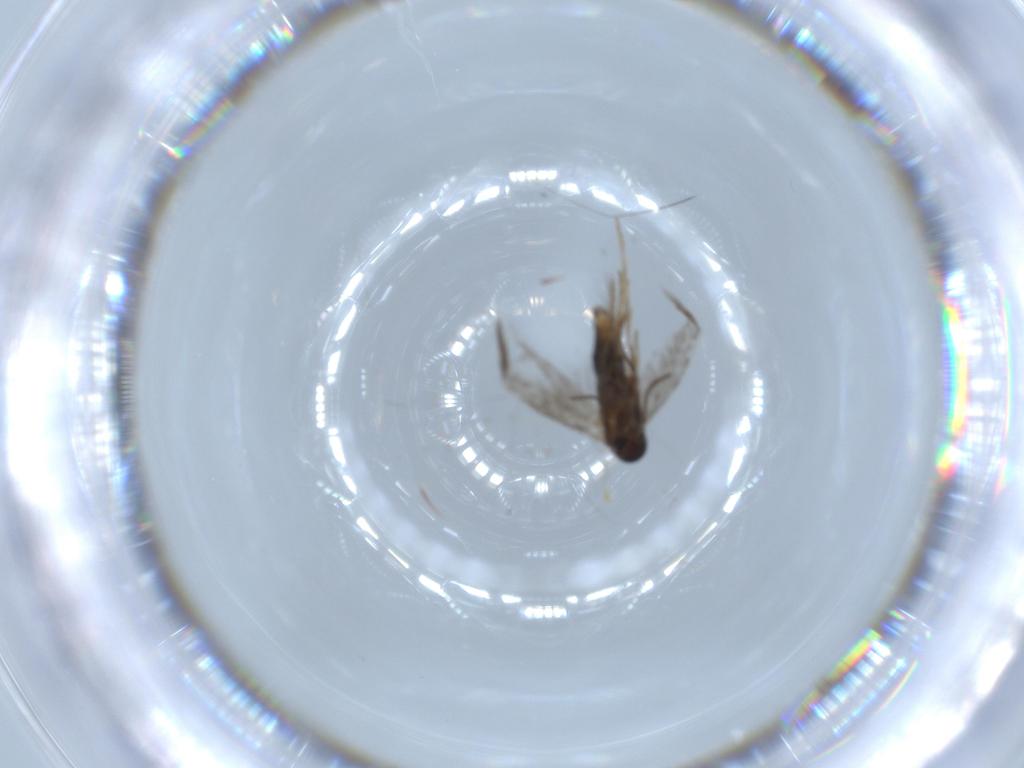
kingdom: Animalia
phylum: Arthropoda
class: Insecta
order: Lepidoptera
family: Heliozelidae
